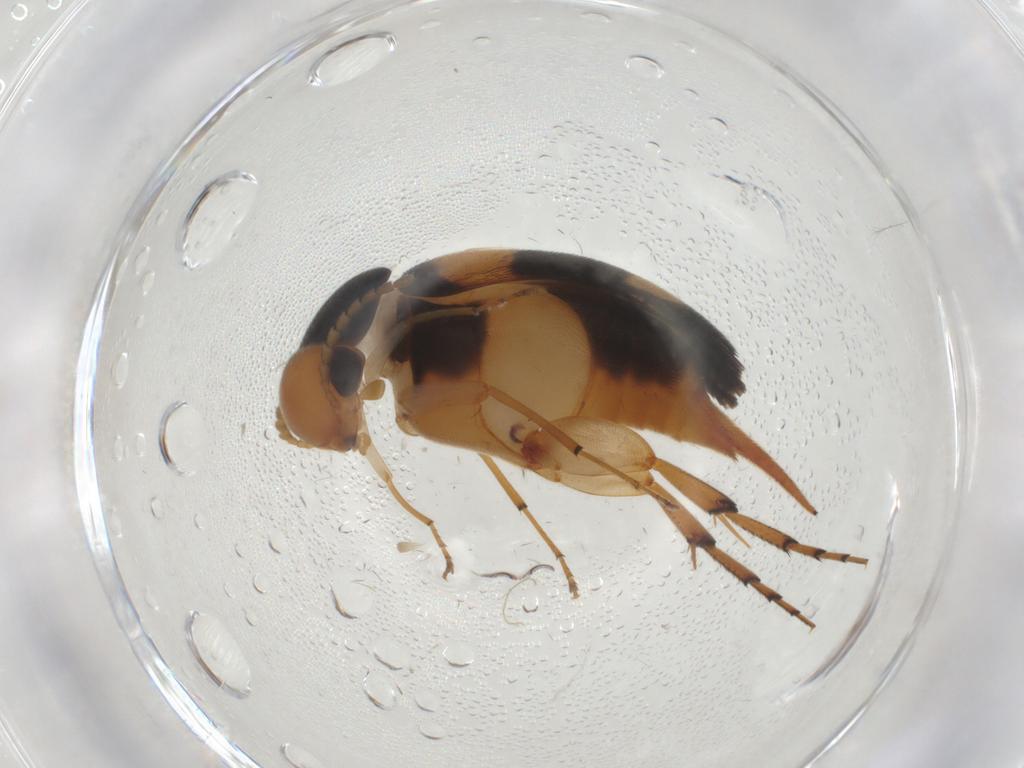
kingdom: Animalia
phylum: Arthropoda
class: Insecta
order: Coleoptera
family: Mordellidae
